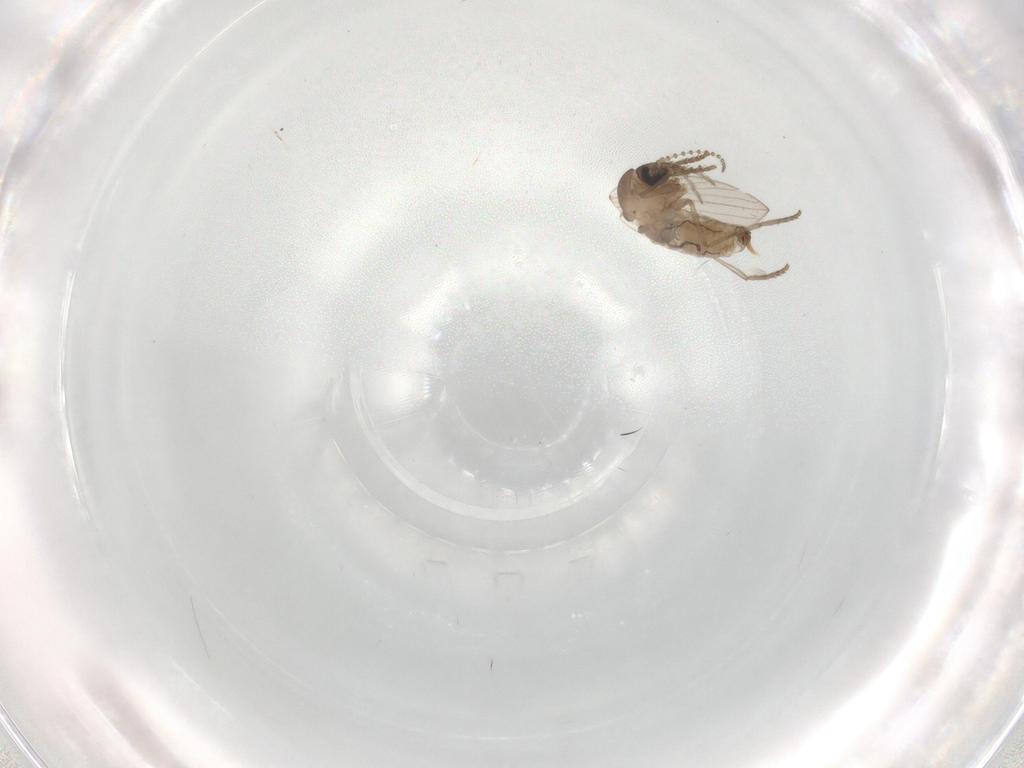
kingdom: Animalia
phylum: Arthropoda
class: Insecta
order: Diptera
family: Psychodidae
